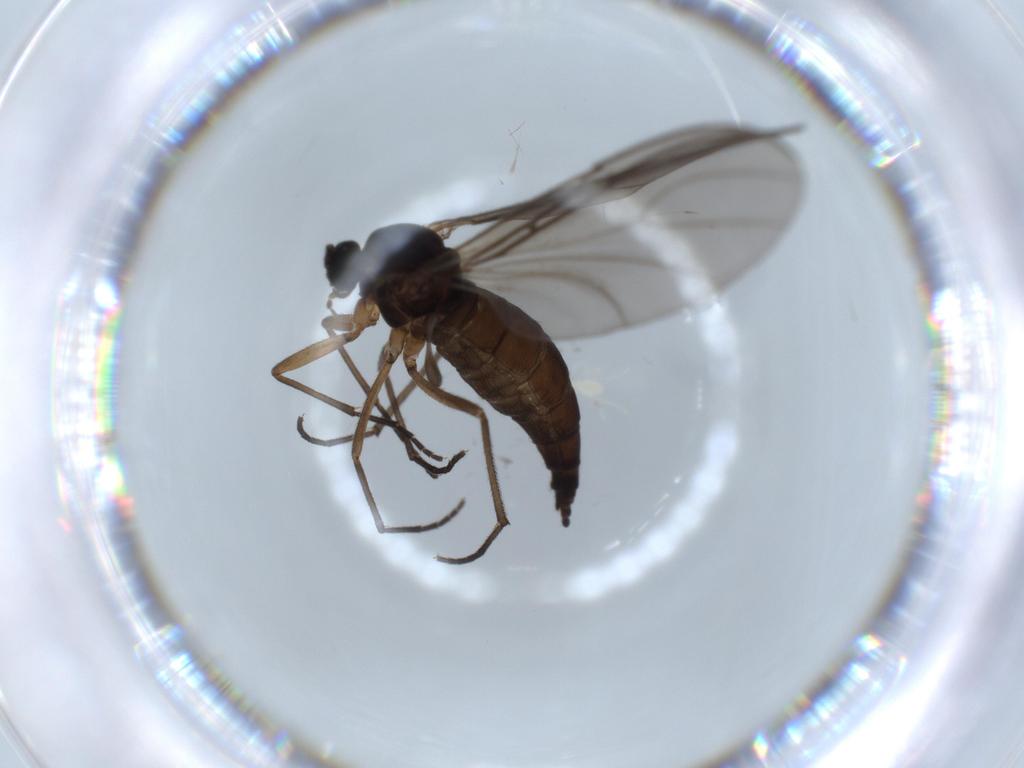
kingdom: Animalia
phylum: Arthropoda
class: Insecta
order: Diptera
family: Sciaridae
